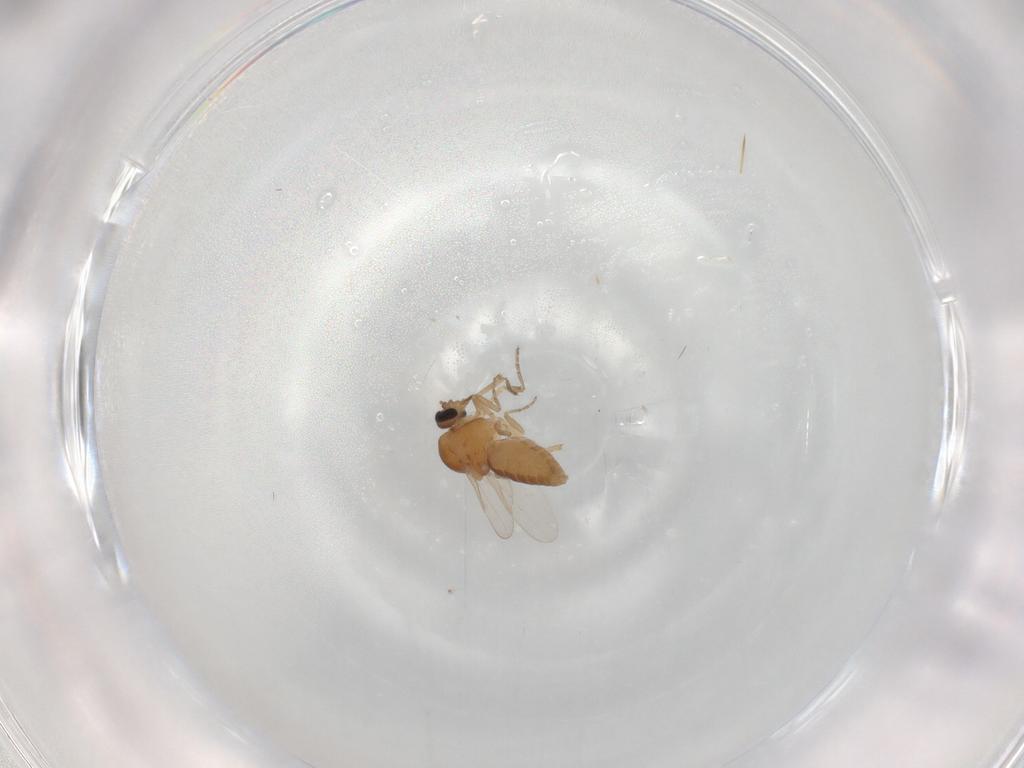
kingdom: Animalia
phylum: Arthropoda
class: Insecta
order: Diptera
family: Ceratopogonidae
